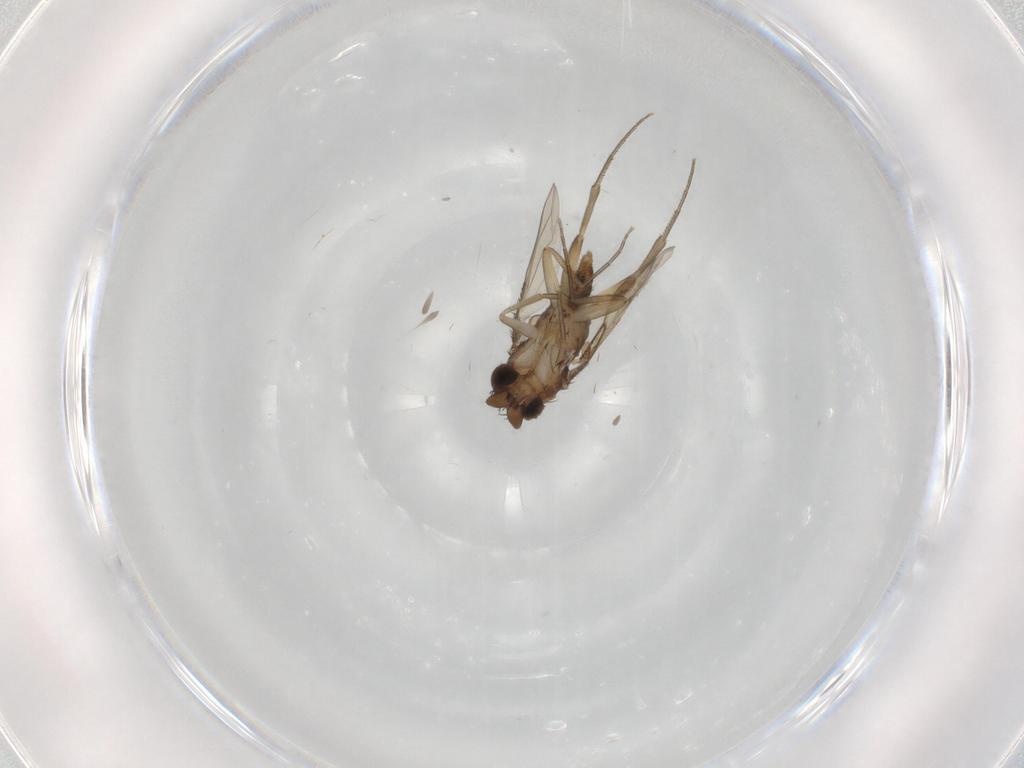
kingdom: Animalia
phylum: Arthropoda
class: Insecta
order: Diptera
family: Phoridae
